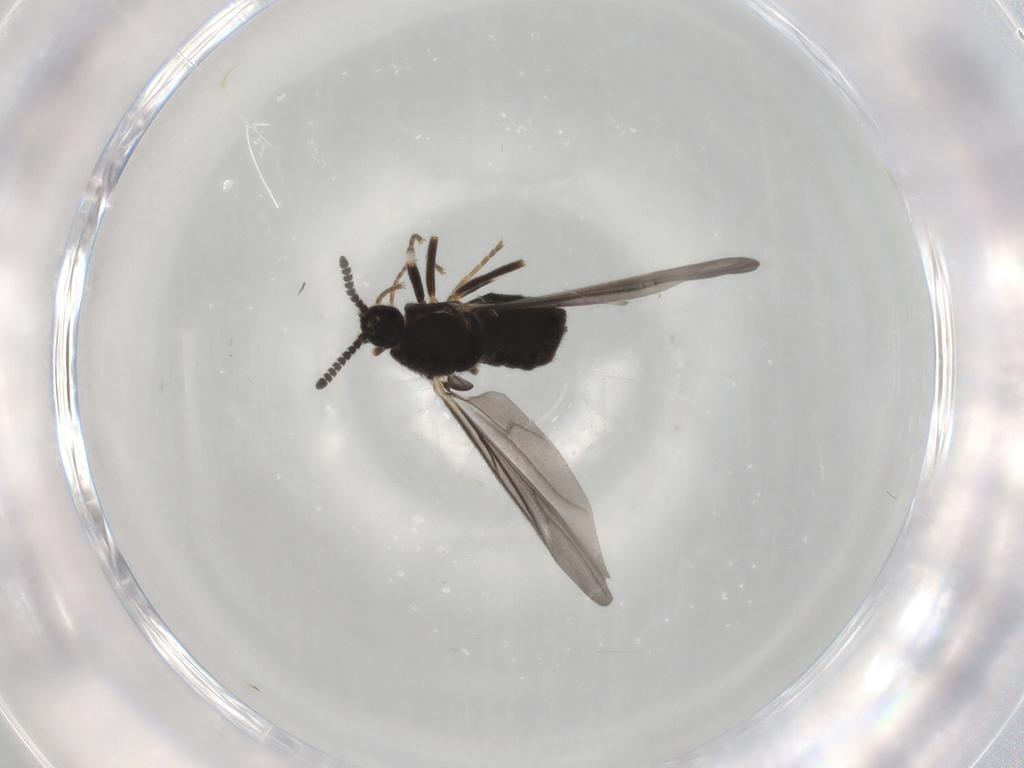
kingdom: Animalia
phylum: Arthropoda
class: Insecta
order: Diptera
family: Scatopsidae
